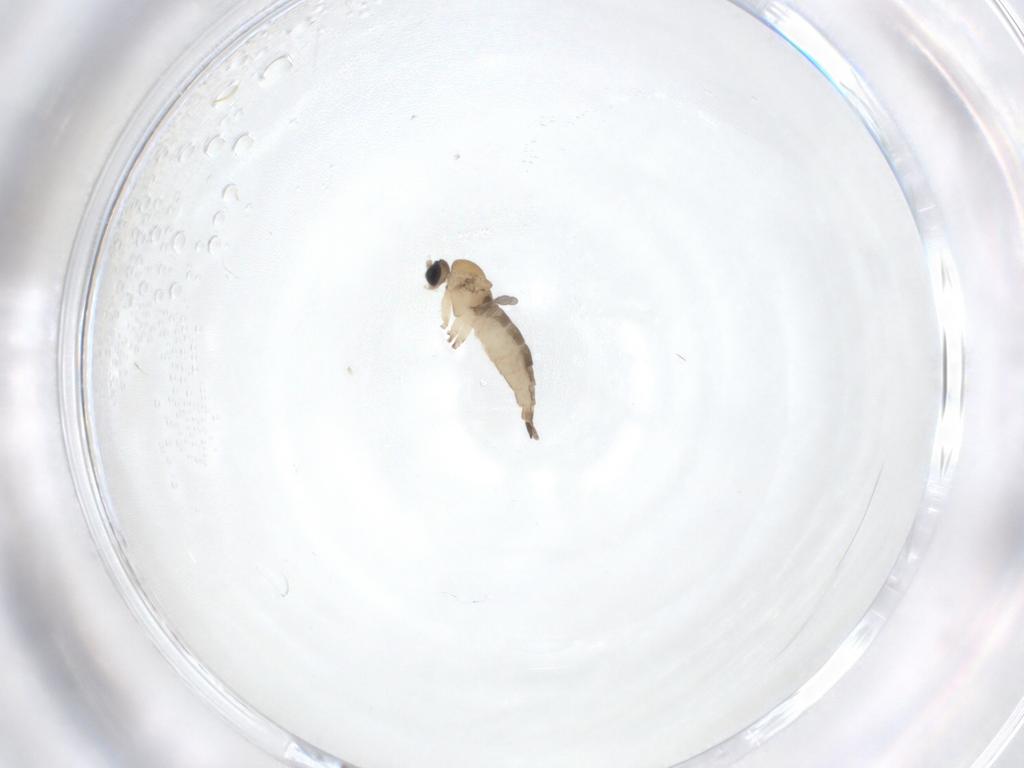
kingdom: Animalia
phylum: Arthropoda
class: Insecta
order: Diptera
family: Sciaridae
